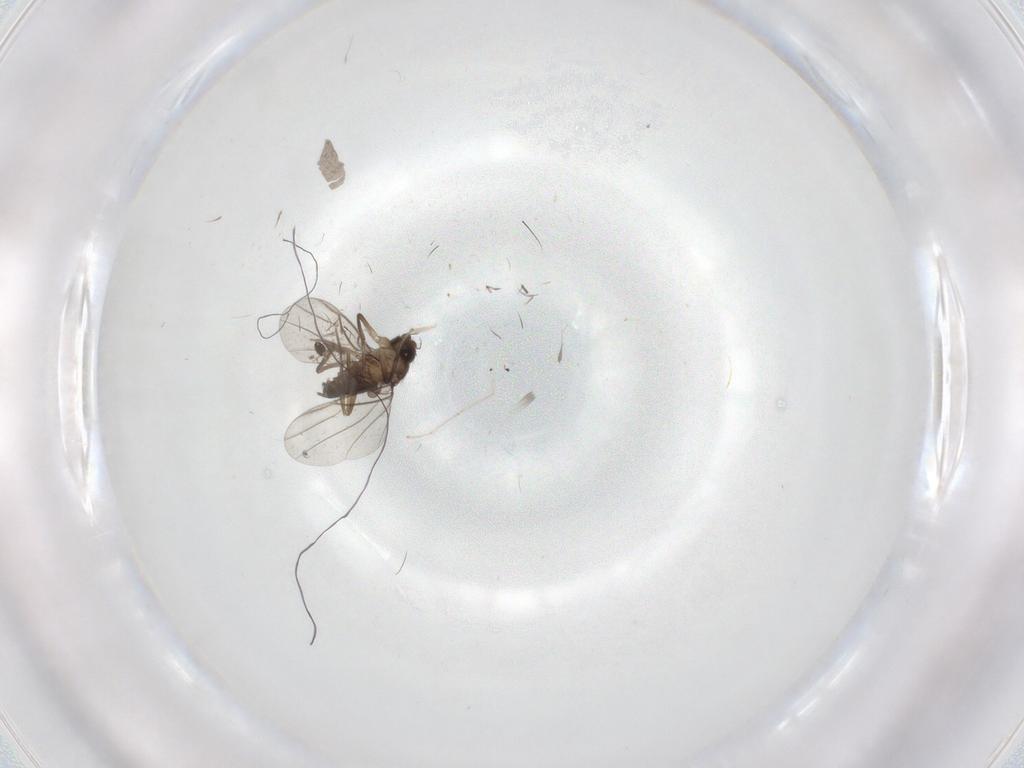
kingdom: Animalia
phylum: Arthropoda
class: Insecta
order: Diptera
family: Phoridae
